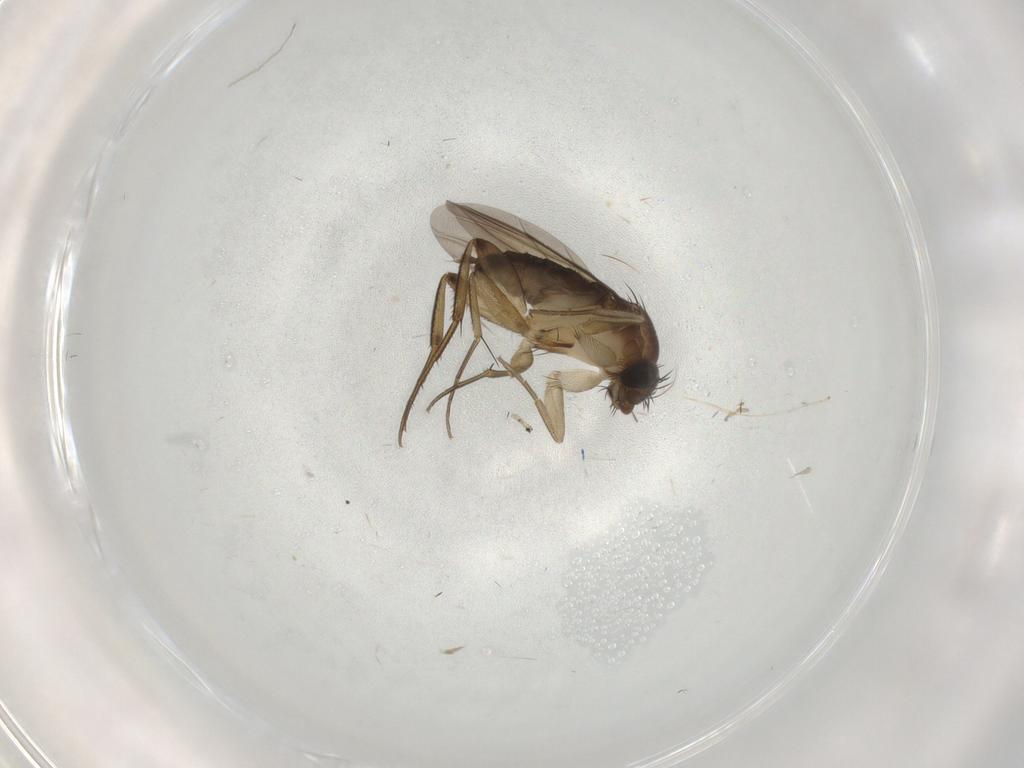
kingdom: Animalia
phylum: Arthropoda
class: Insecta
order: Diptera
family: Phoridae
